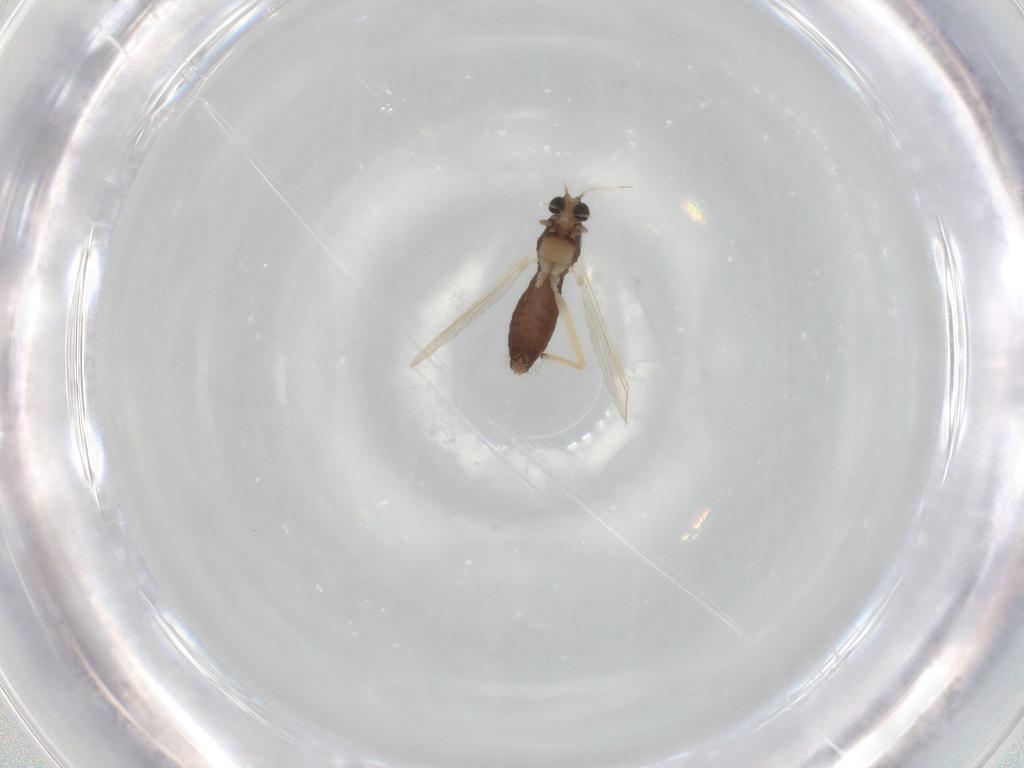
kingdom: Animalia
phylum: Arthropoda
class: Insecta
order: Diptera
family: Chironomidae
